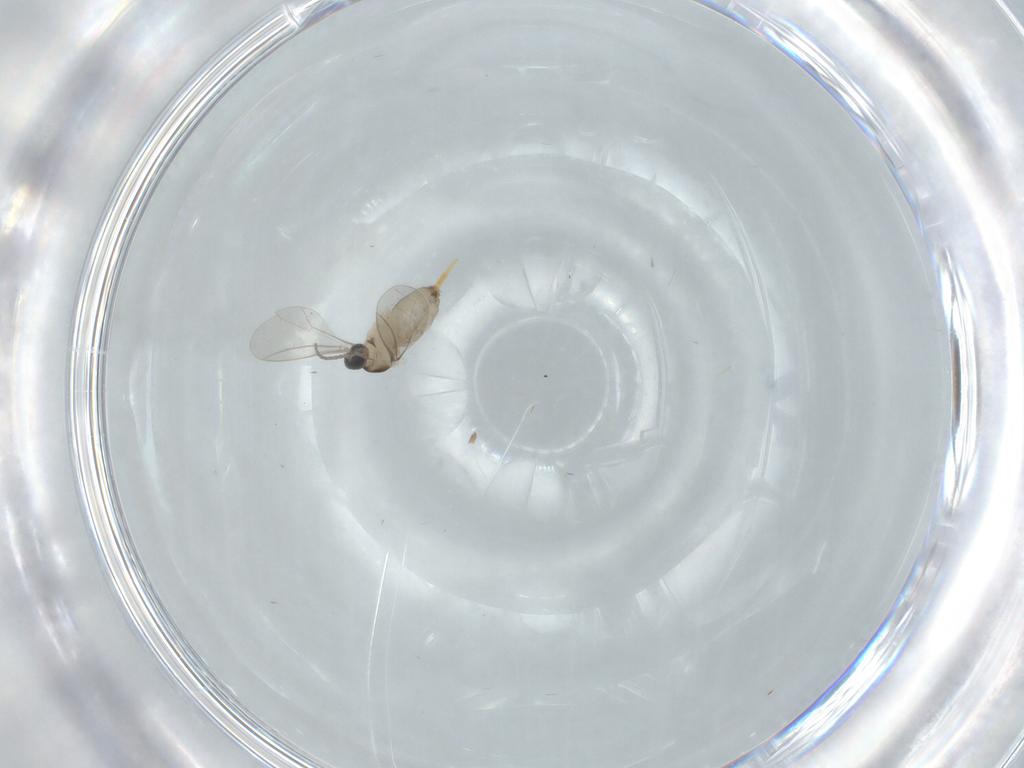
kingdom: Animalia
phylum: Arthropoda
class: Insecta
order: Diptera
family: Cecidomyiidae
